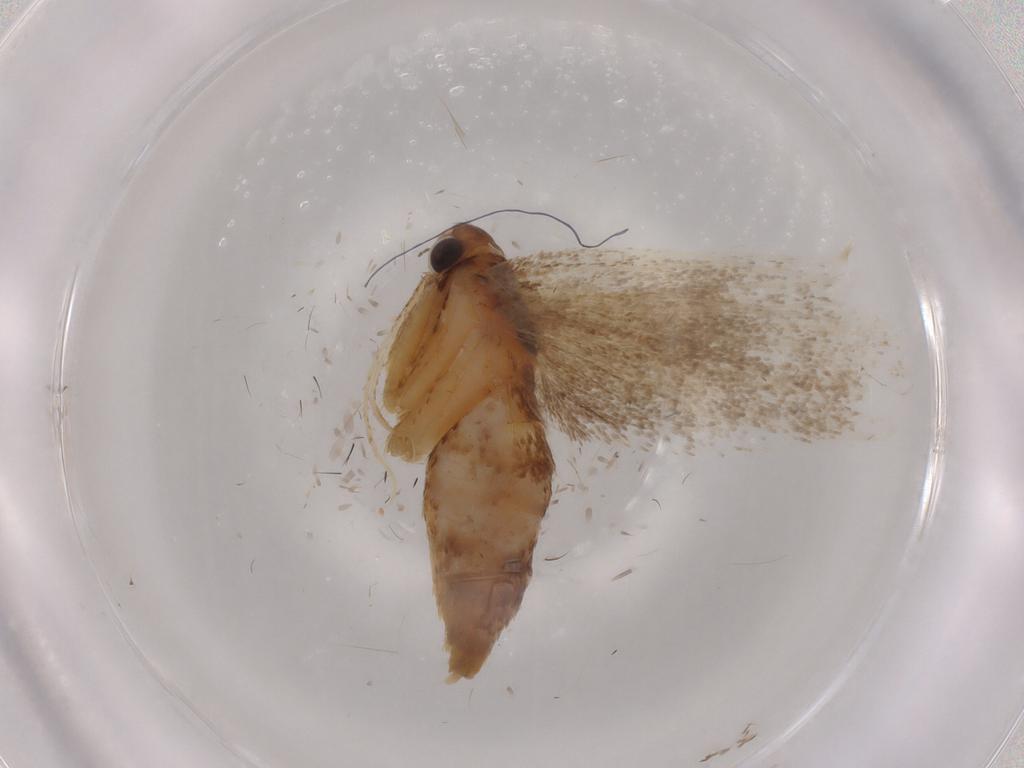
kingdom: Animalia
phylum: Arthropoda
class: Insecta
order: Lepidoptera
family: Lecithoceridae
